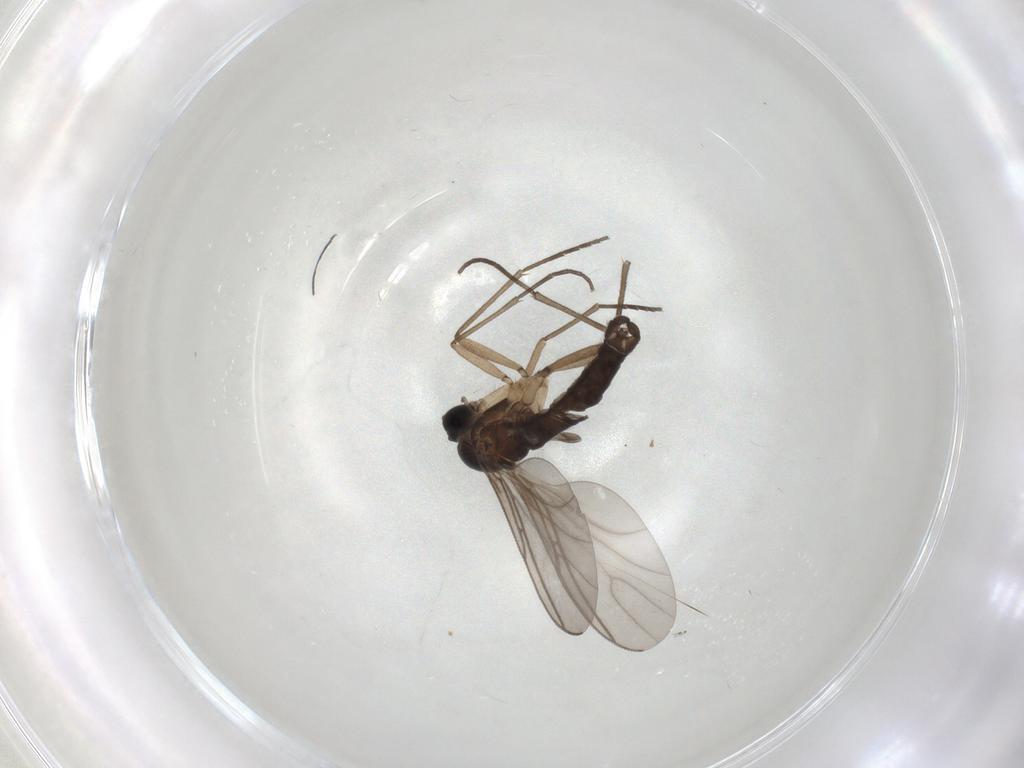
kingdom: Animalia
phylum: Arthropoda
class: Insecta
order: Diptera
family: Sciaridae
